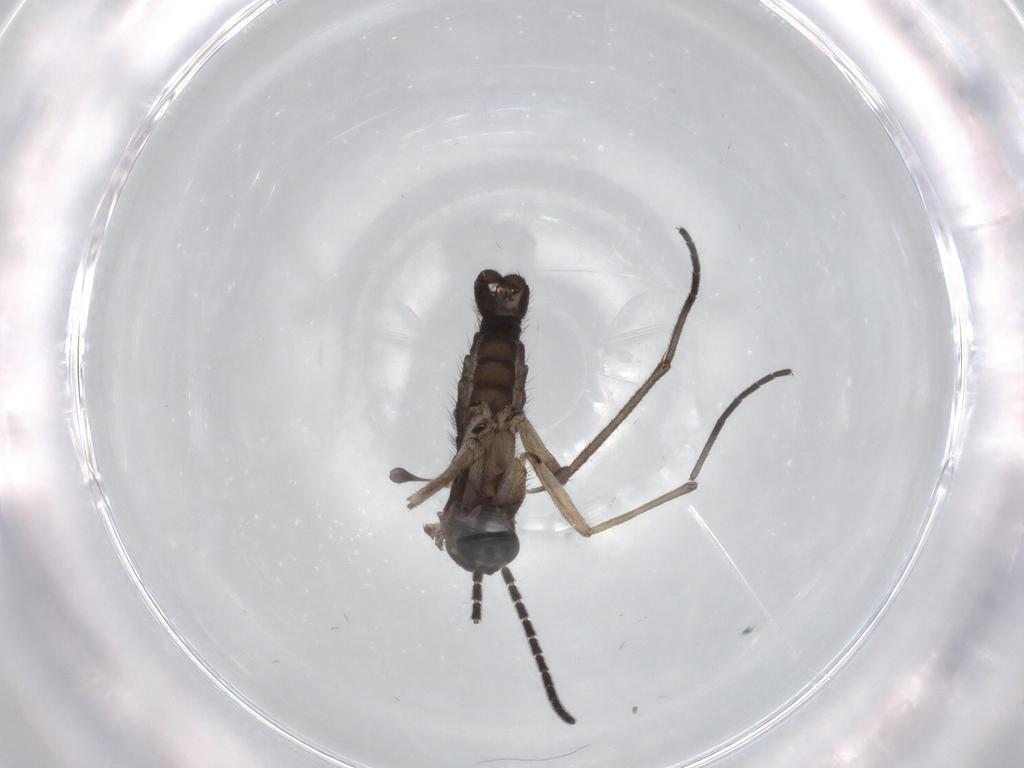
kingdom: Animalia
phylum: Arthropoda
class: Insecta
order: Diptera
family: Sciaridae
